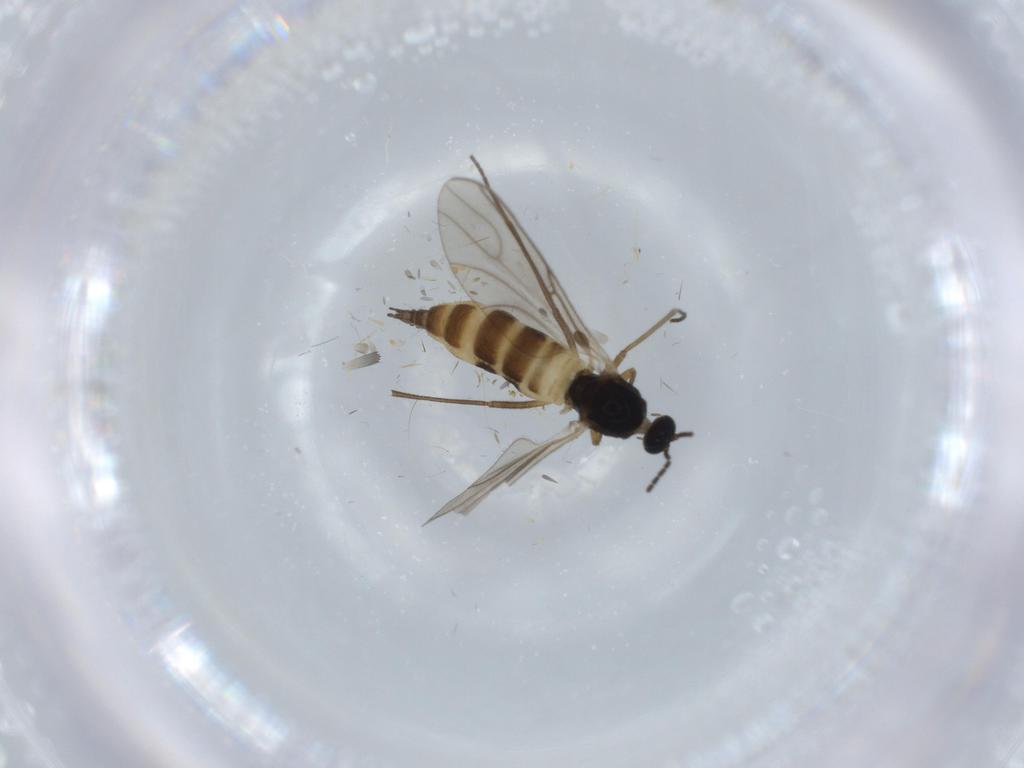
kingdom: Animalia
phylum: Arthropoda
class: Insecta
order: Diptera
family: Sciaridae
